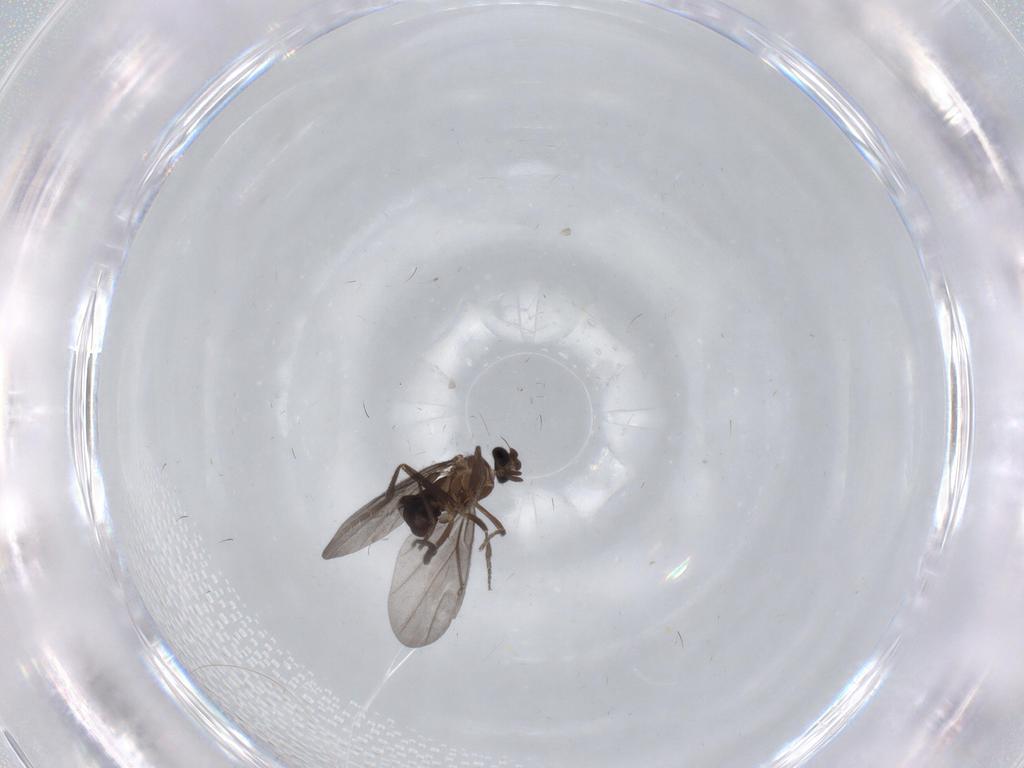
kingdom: Animalia
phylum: Arthropoda
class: Insecta
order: Diptera
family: Phoridae
